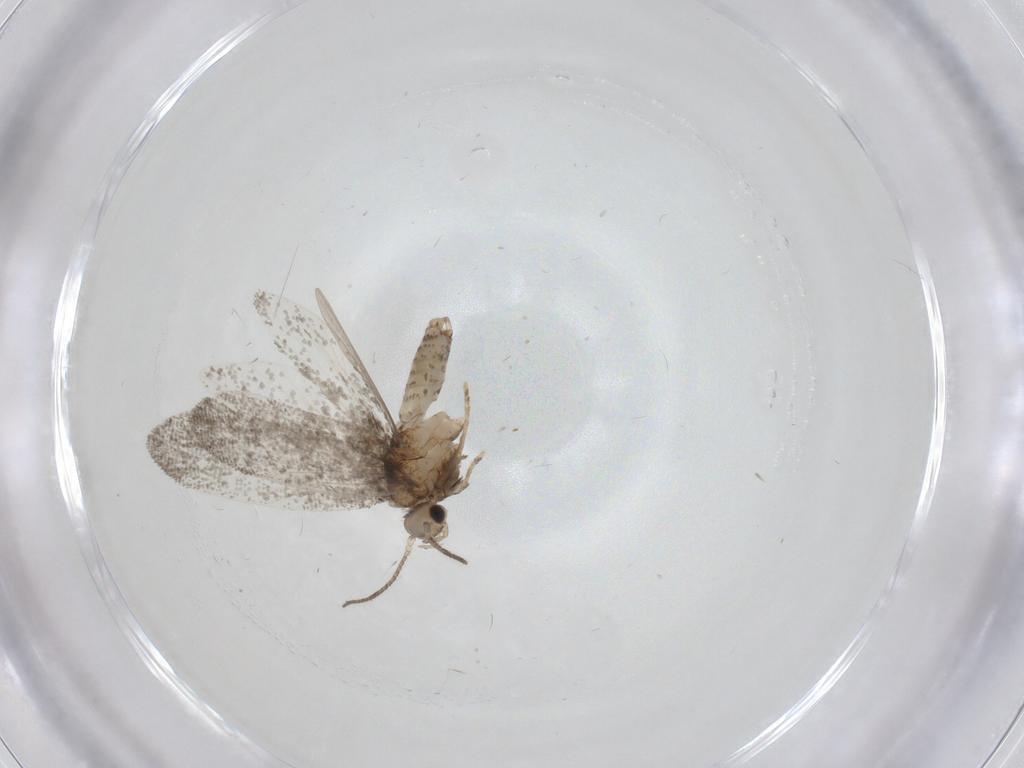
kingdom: Animalia
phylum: Arthropoda
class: Insecta
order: Lepidoptera
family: Psychidae
